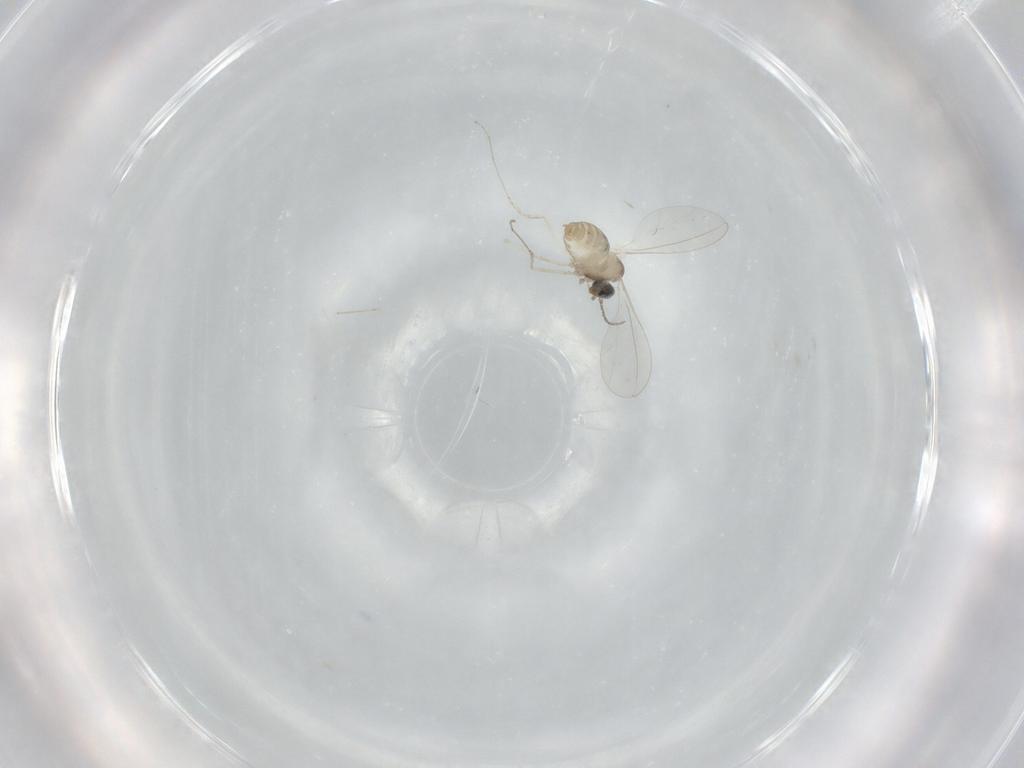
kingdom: Animalia
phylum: Arthropoda
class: Insecta
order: Diptera
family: Cecidomyiidae
